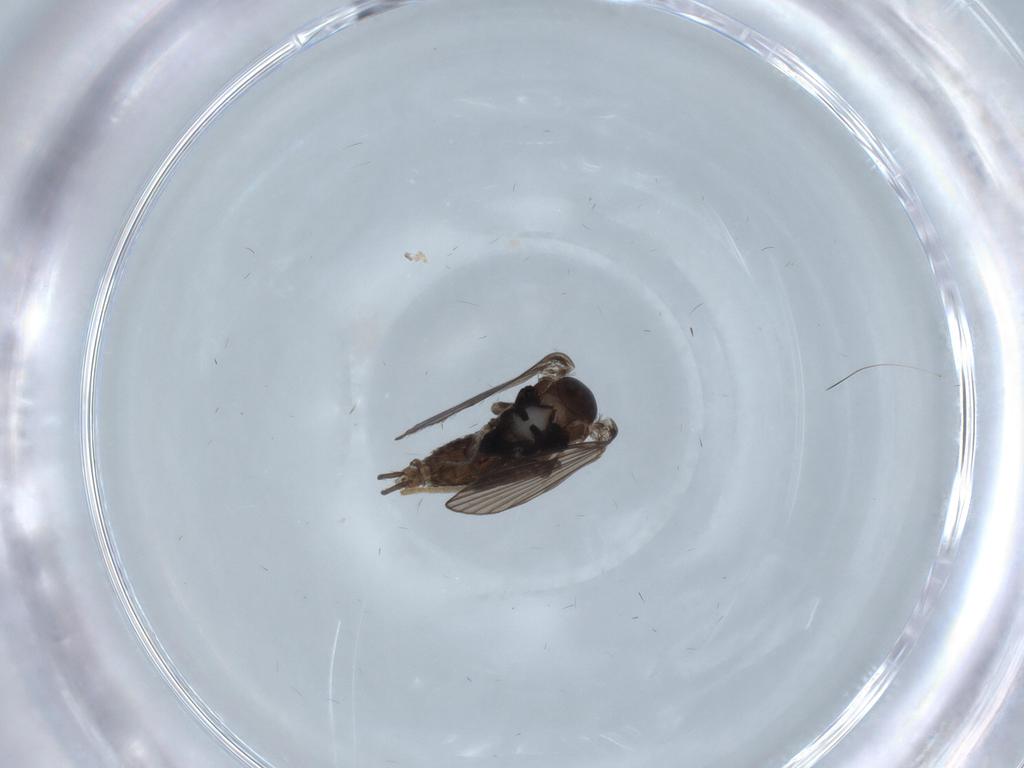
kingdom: Animalia
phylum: Arthropoda
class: Insecta
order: Diptera
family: Psychodidae
